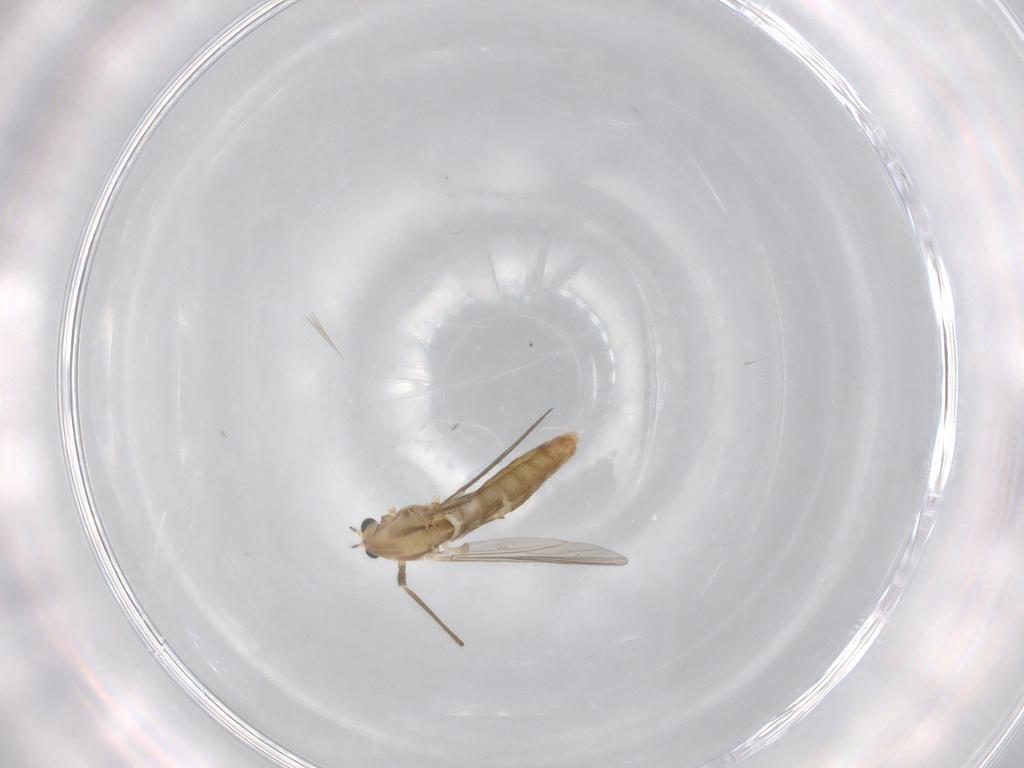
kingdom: Animalia
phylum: Arthropoda
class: Insecta
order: Diptera
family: Chironomidae
